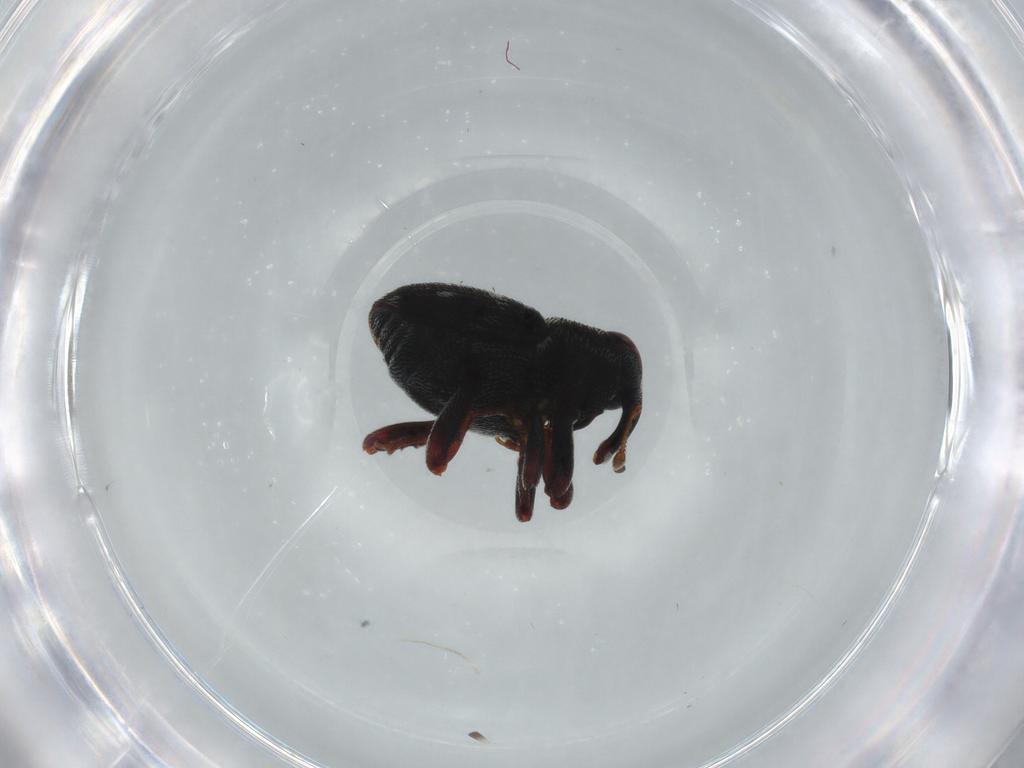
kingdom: Animalia
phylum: Arthropoda
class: Insecta
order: Coleoptera
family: Curculionidae
